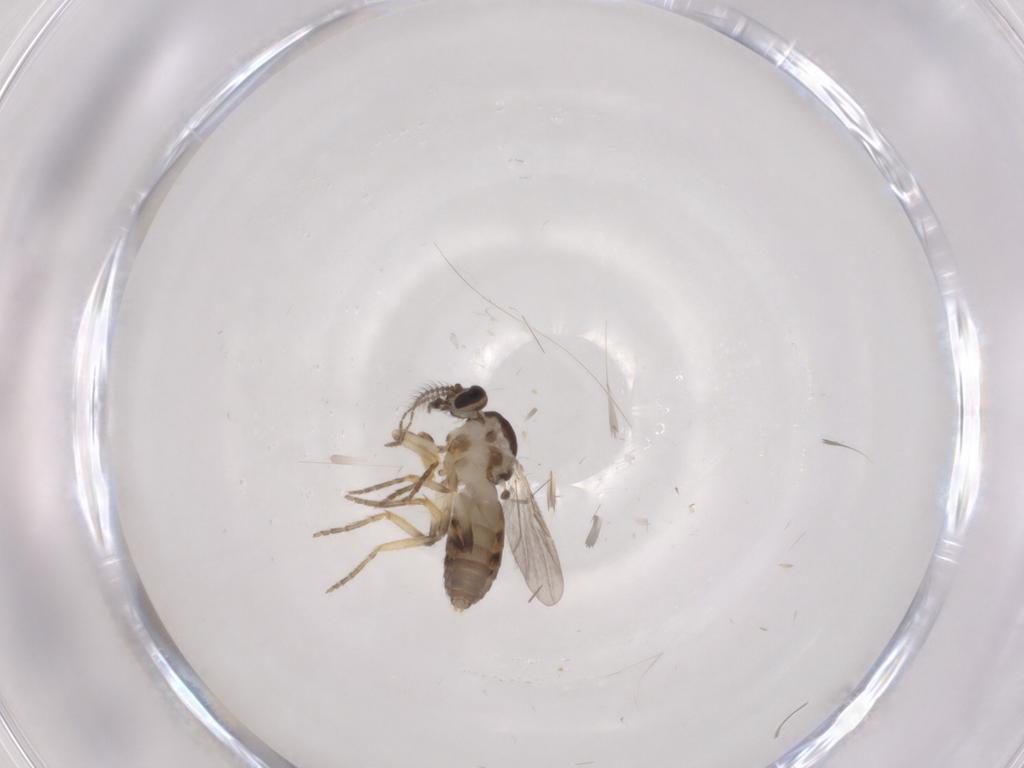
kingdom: Animalia
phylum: Arthropoda
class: Insecta
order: Diptera
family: Ceratopogonidae
